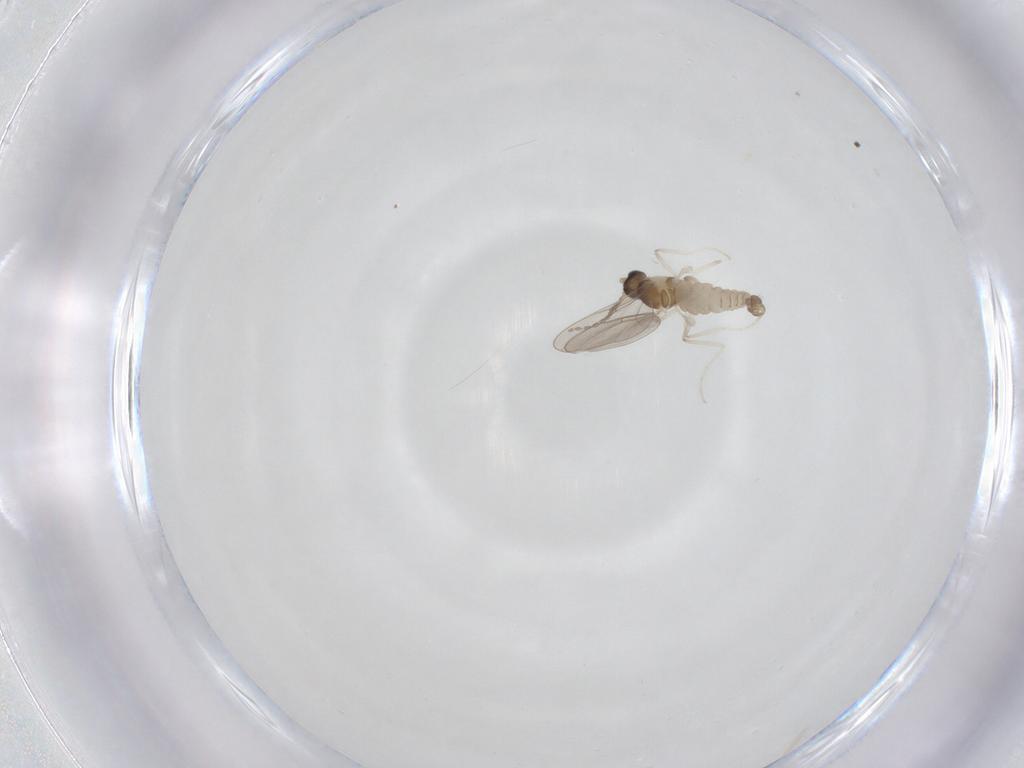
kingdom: Animalia
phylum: Arthropoda
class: Insecta
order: Diptera
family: Cecidomyiidae
